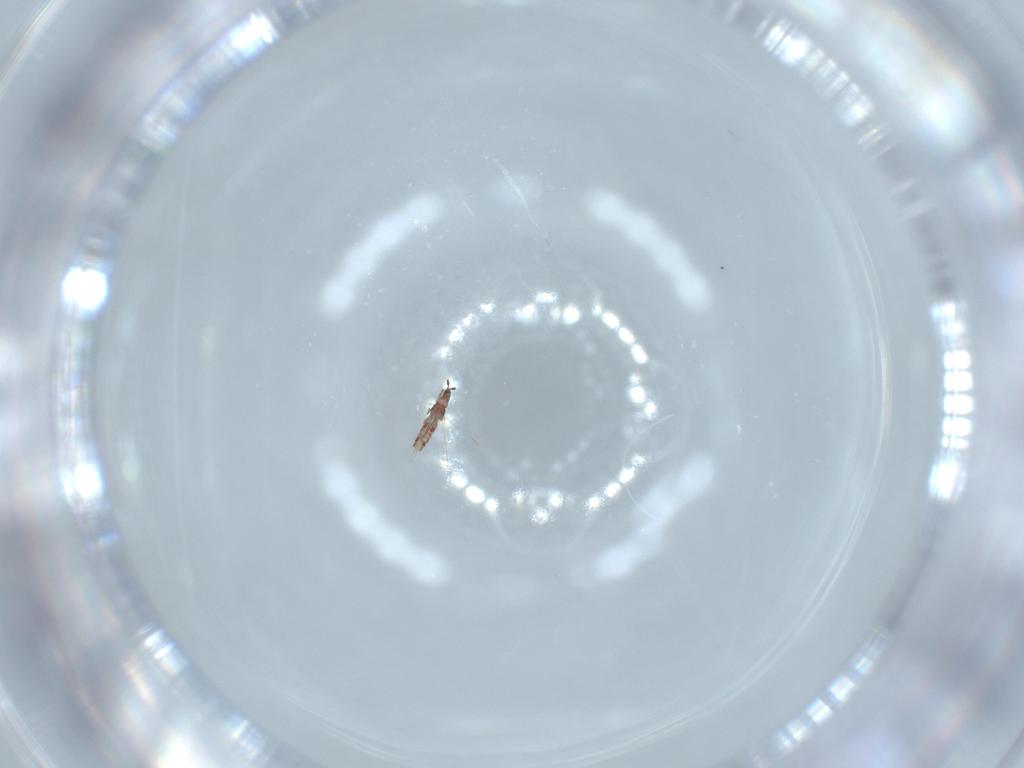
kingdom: Animalia
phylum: Arthropoda
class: Insecta
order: Thysanoptera
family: Phlaeothripidae
